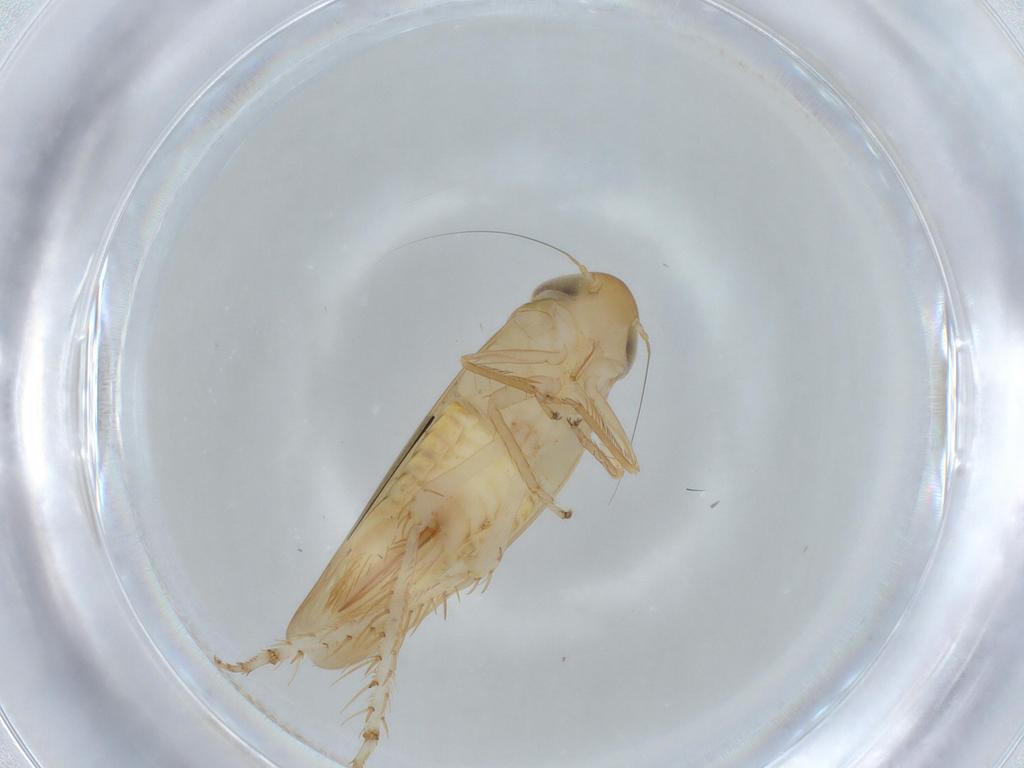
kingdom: Animalia
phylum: Arthropoda
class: Insecta
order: Hemiptera
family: Cicadellidae
